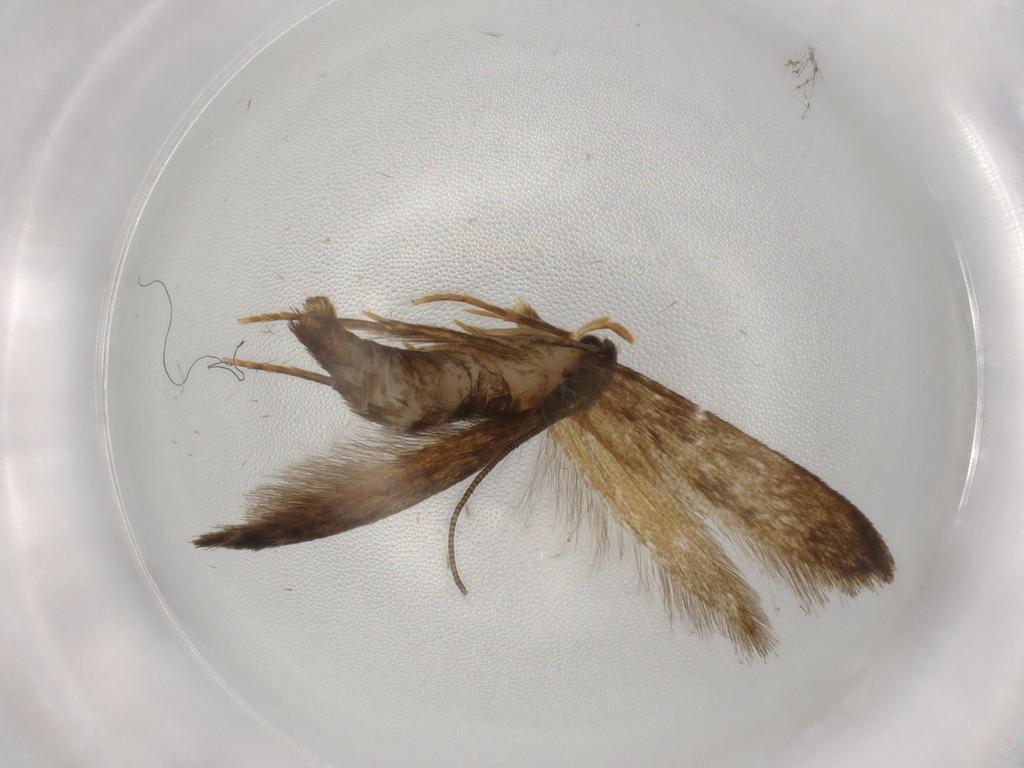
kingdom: Animalia
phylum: Arthropoda
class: Insecta
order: Lepidoptera
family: Tineidae
